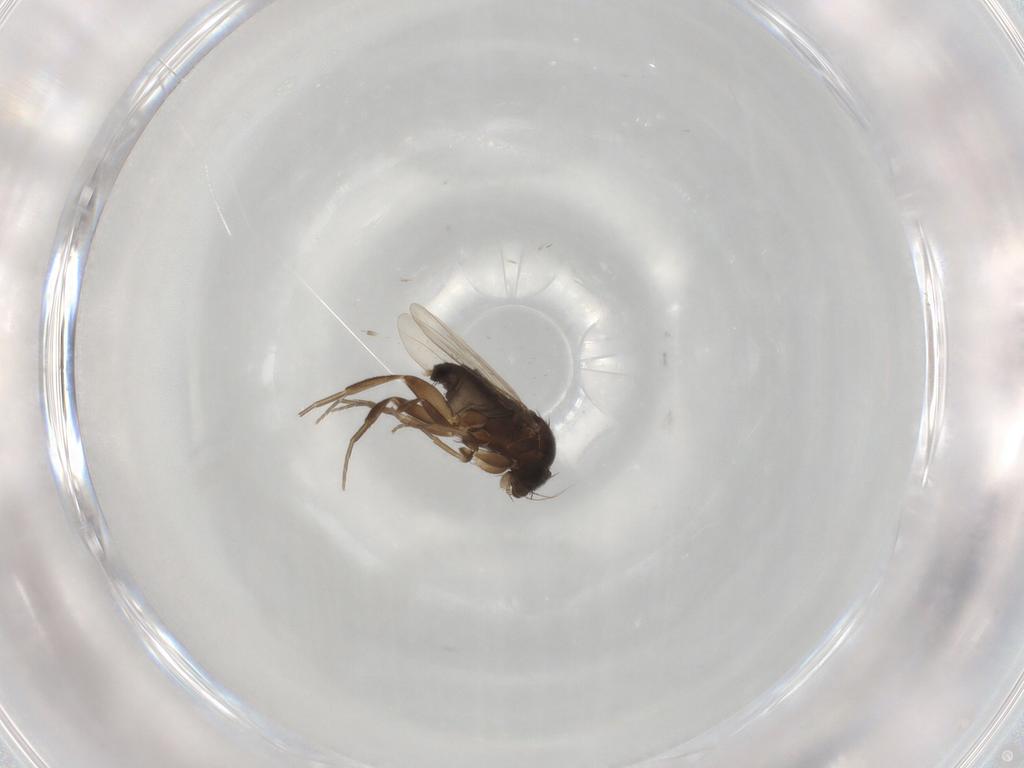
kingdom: Animalia
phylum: Arthropoda
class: Insecta
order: Diptera
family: Phoridae
